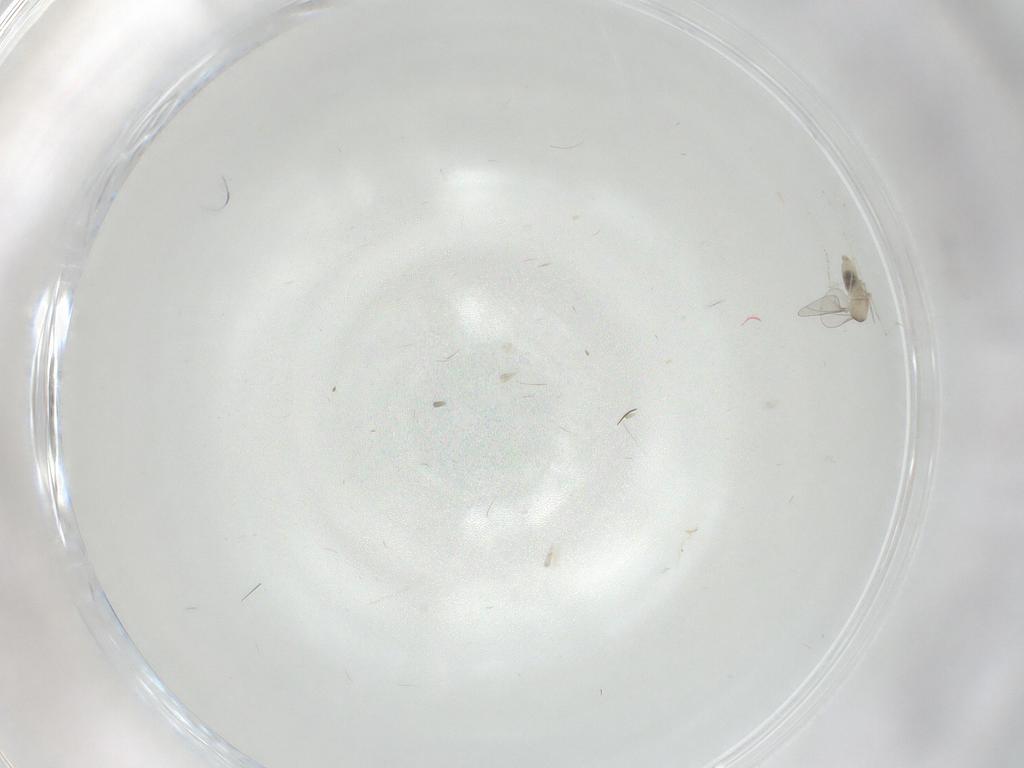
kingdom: Animalia
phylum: Arthropoda
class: Insecta
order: Diptera
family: Cecidomyiidae
